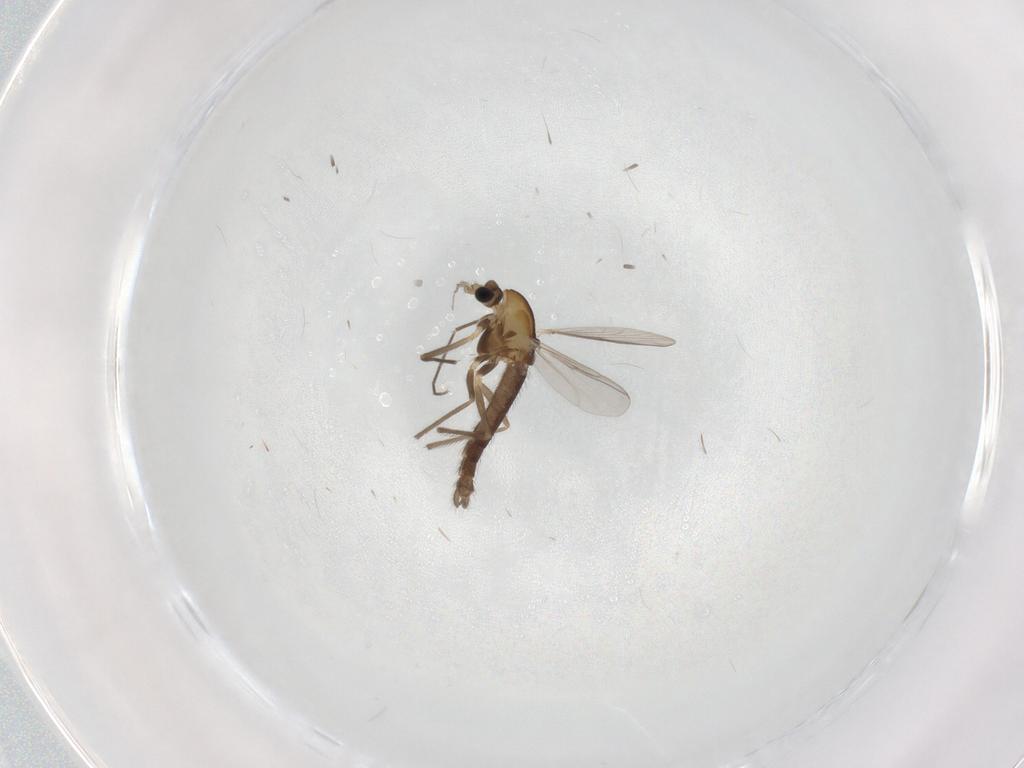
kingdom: Animalia
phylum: Arthropoda
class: Insecta
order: Diptera
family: Chironomidae
